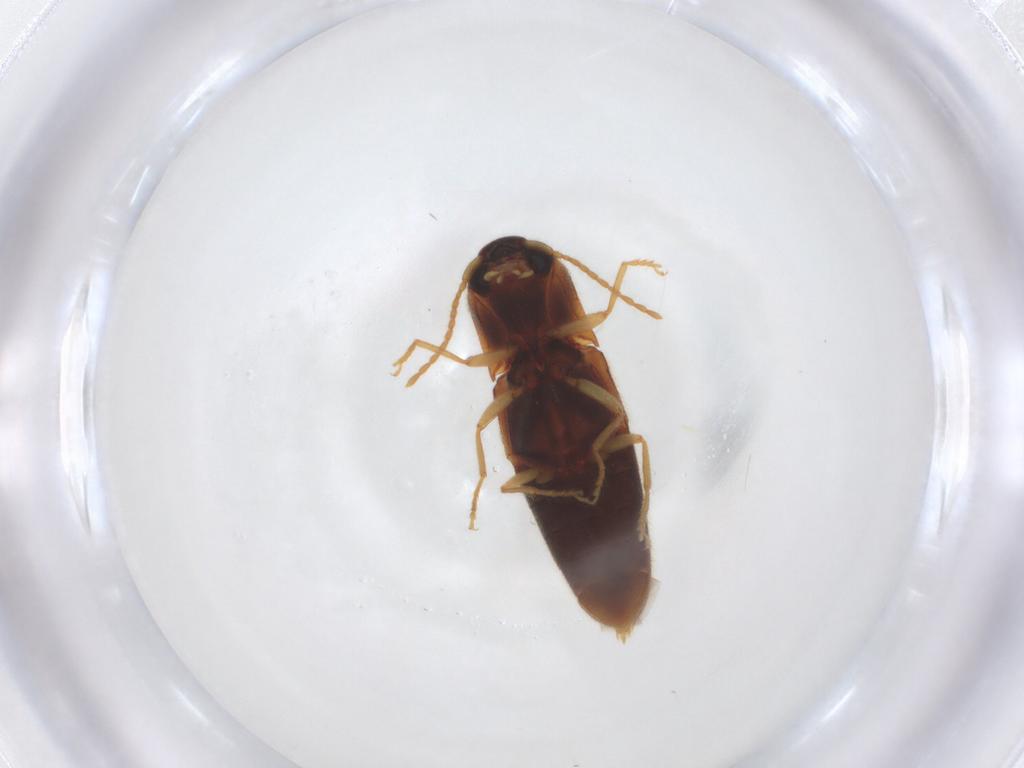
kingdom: Animalia
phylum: Arthropoda
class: Insecta
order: Coleoptera
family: Elateridae
